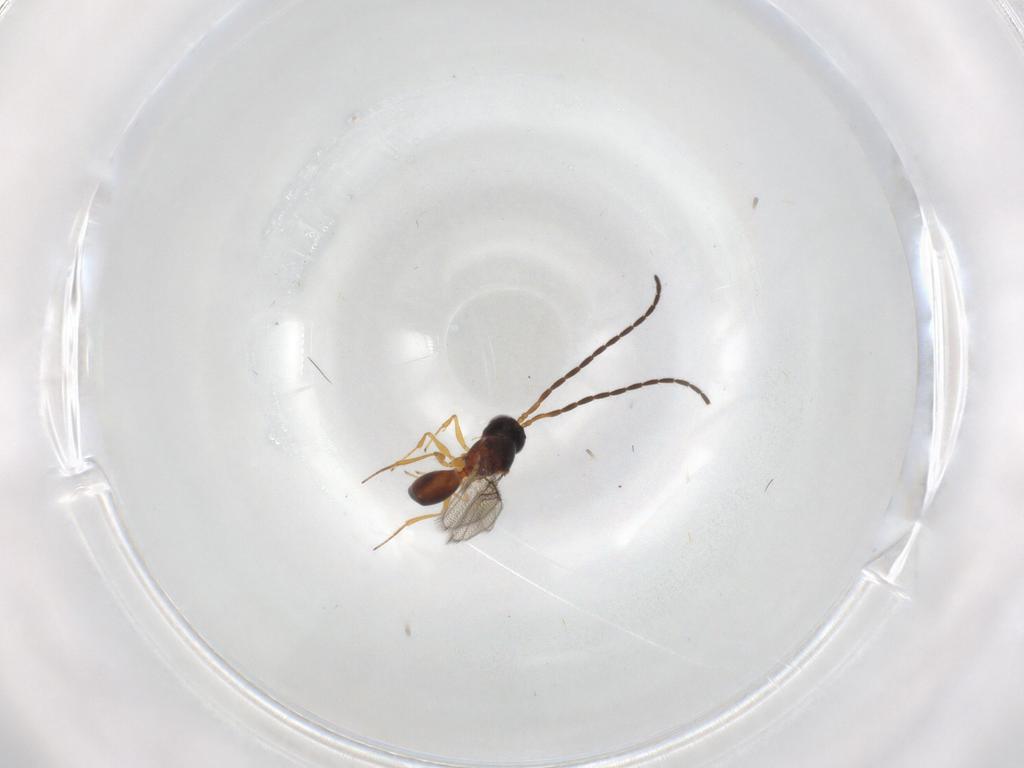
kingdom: Animalia
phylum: Arthropoda
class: Insecta
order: Hymenoptera
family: Figitidae
